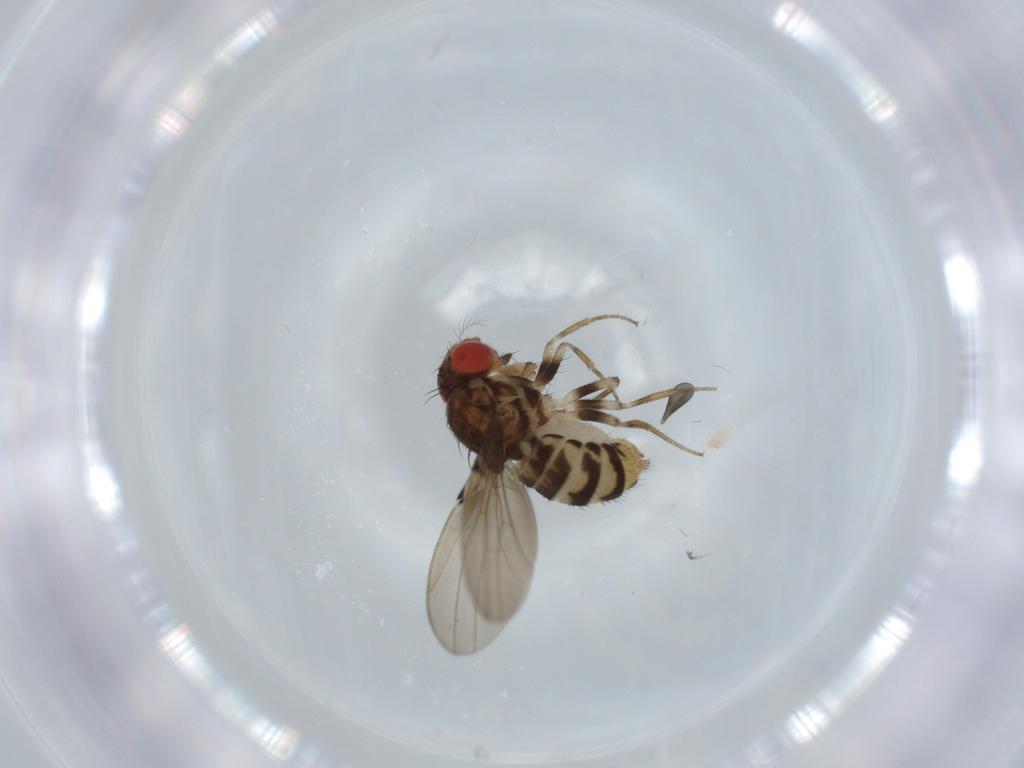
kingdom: Animalia
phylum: Arthropoda
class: Insecta
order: Diptera
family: Drosophilidae
